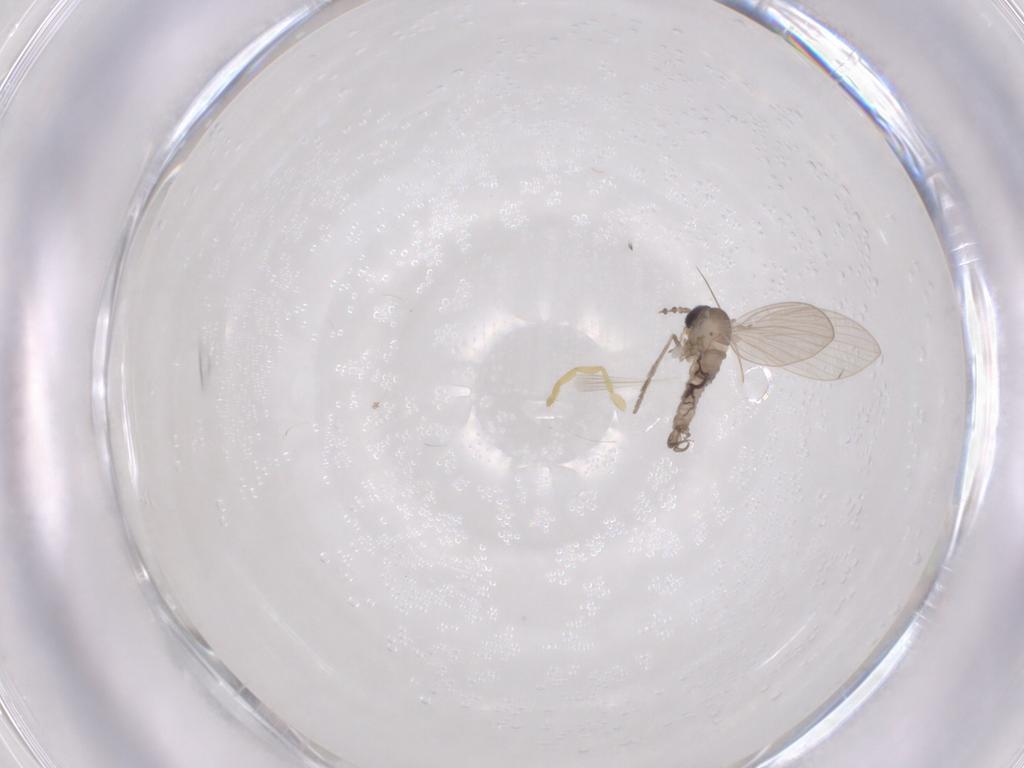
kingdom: Animalia
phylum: Arthropoda
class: Insecta
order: Diptera
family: Psychodidae
